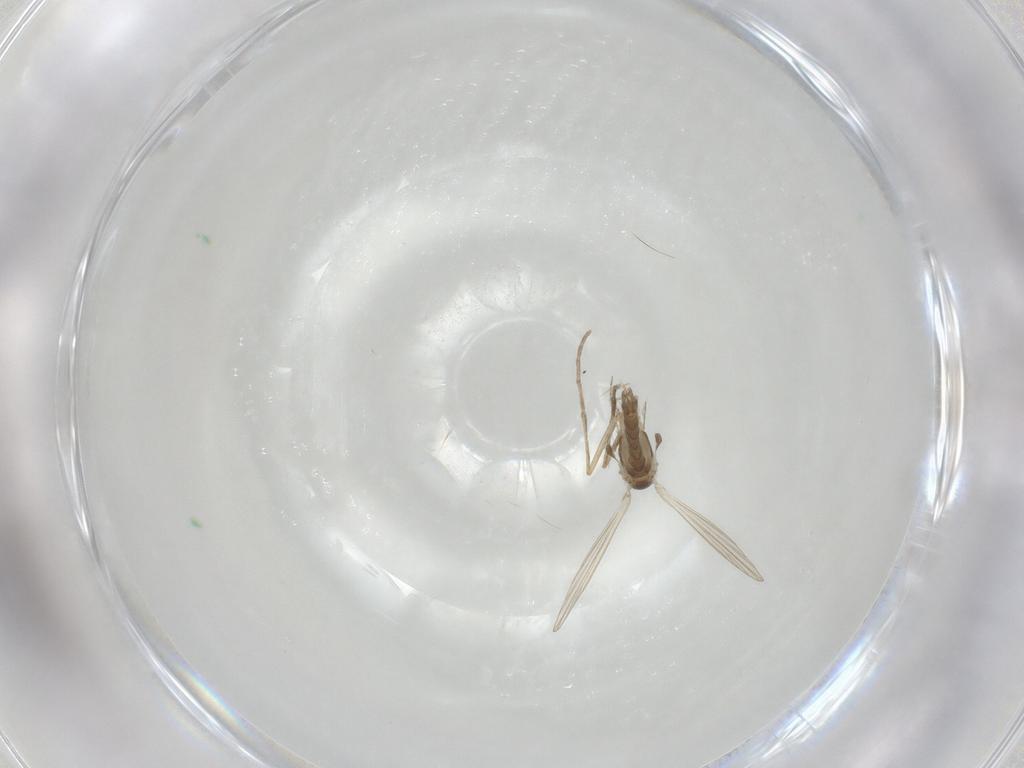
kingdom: Animalia
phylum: Arthropoda
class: Insecta
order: Diptera
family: Psychodidae
